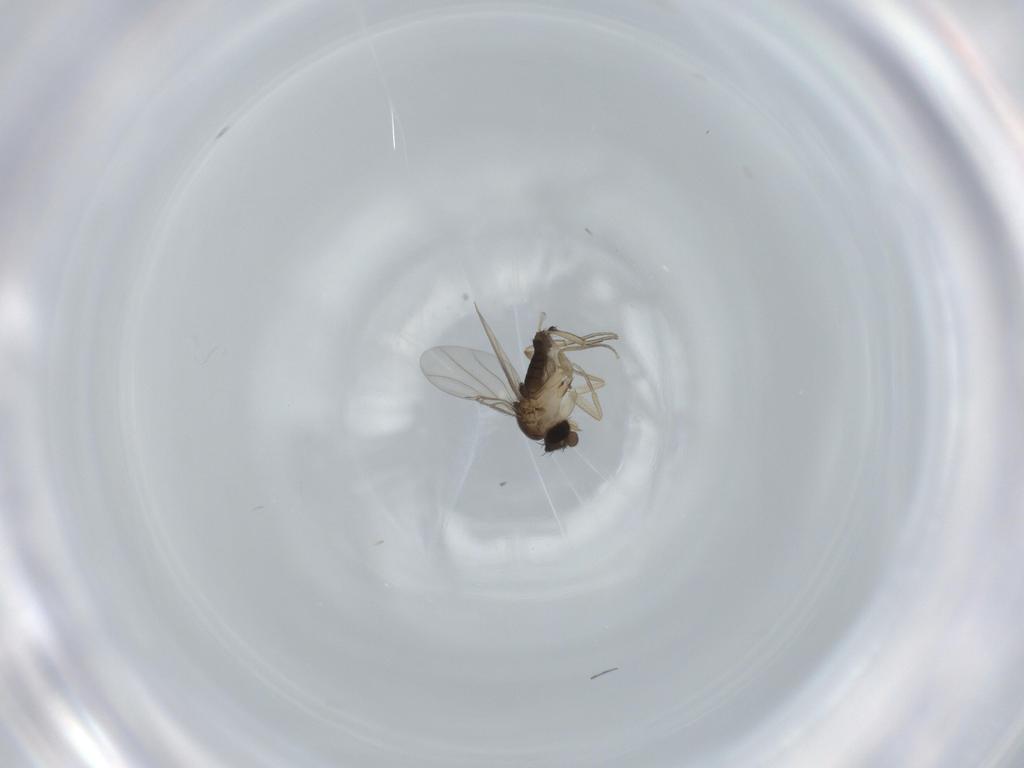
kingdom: Animalia
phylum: Arthropoda
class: Insecta
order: Diptera
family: Phoridae
